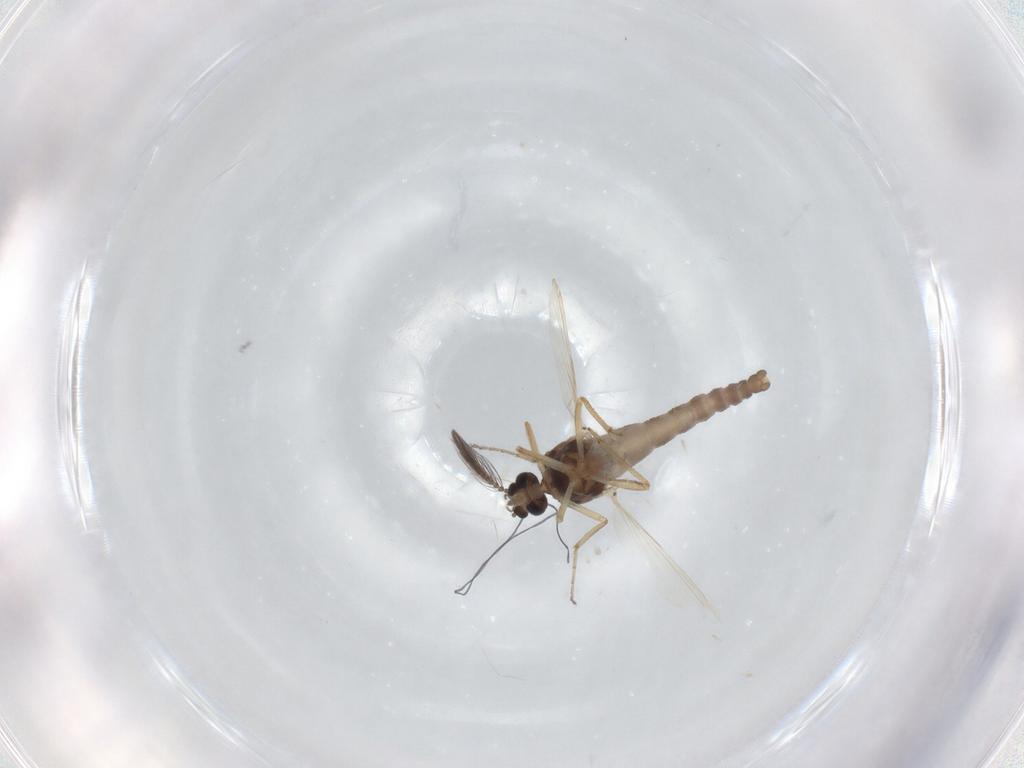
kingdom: Animalia
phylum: Arthropoda
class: Insecta
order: Diptera
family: Ceratopogonidae
